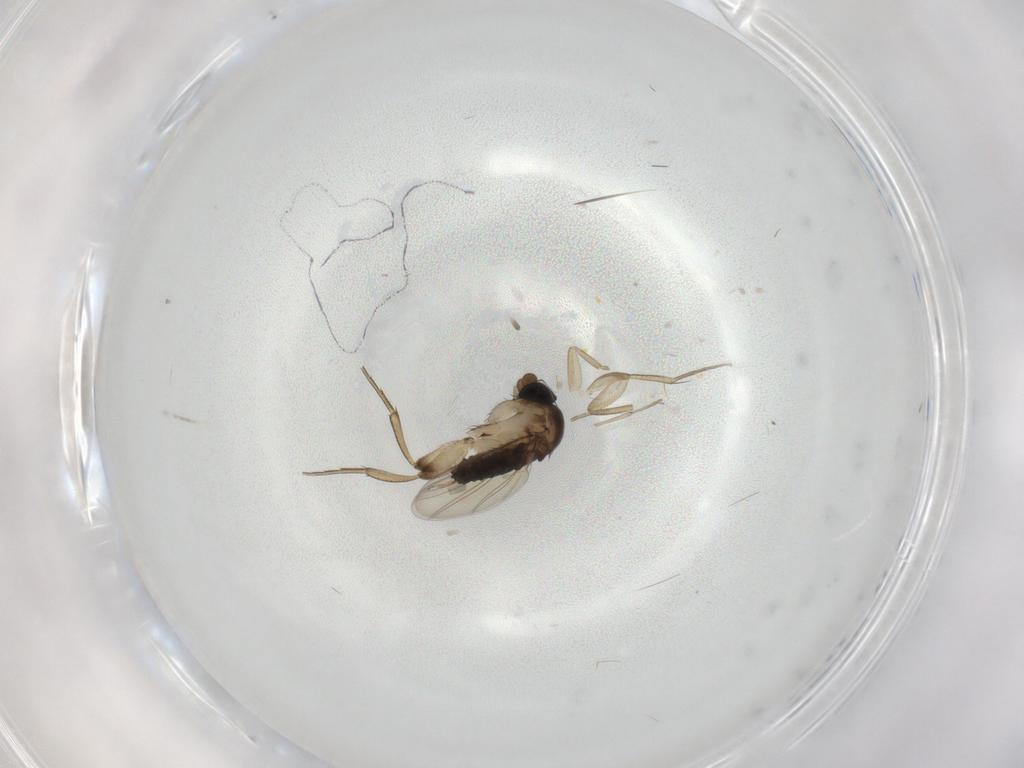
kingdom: Animalia
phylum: Arthropoda
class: Insecta
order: Diptera
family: Phoridae
